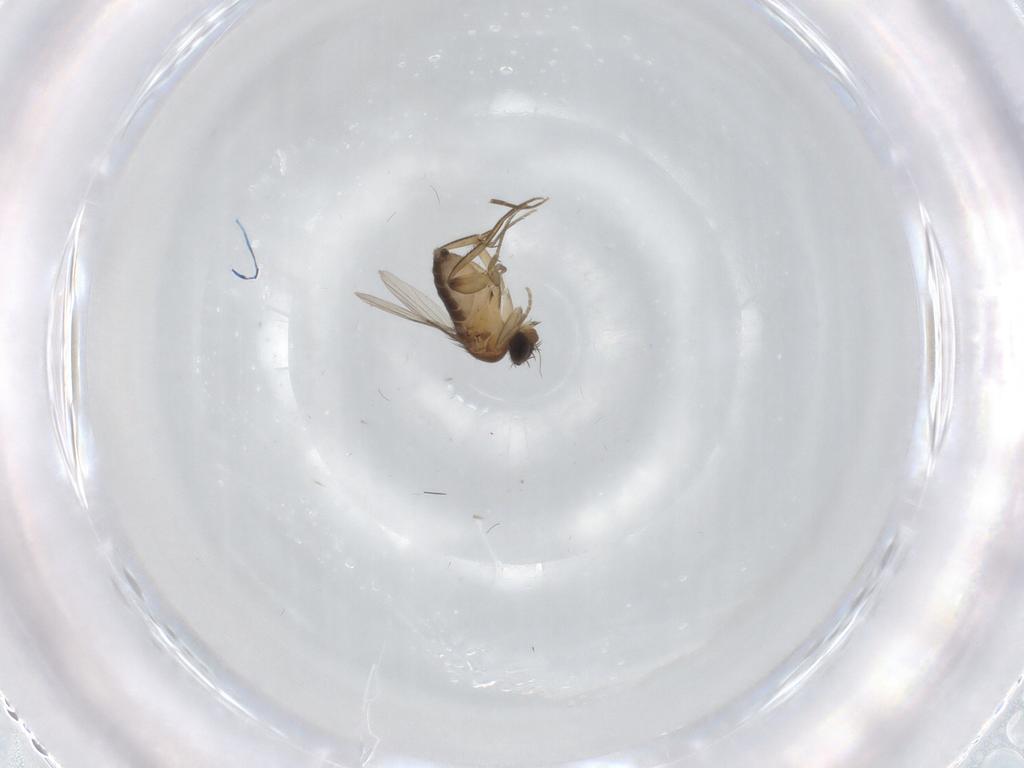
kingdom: Animalia
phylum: Arthropoda
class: Insecta
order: Diptera
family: Phoridae
